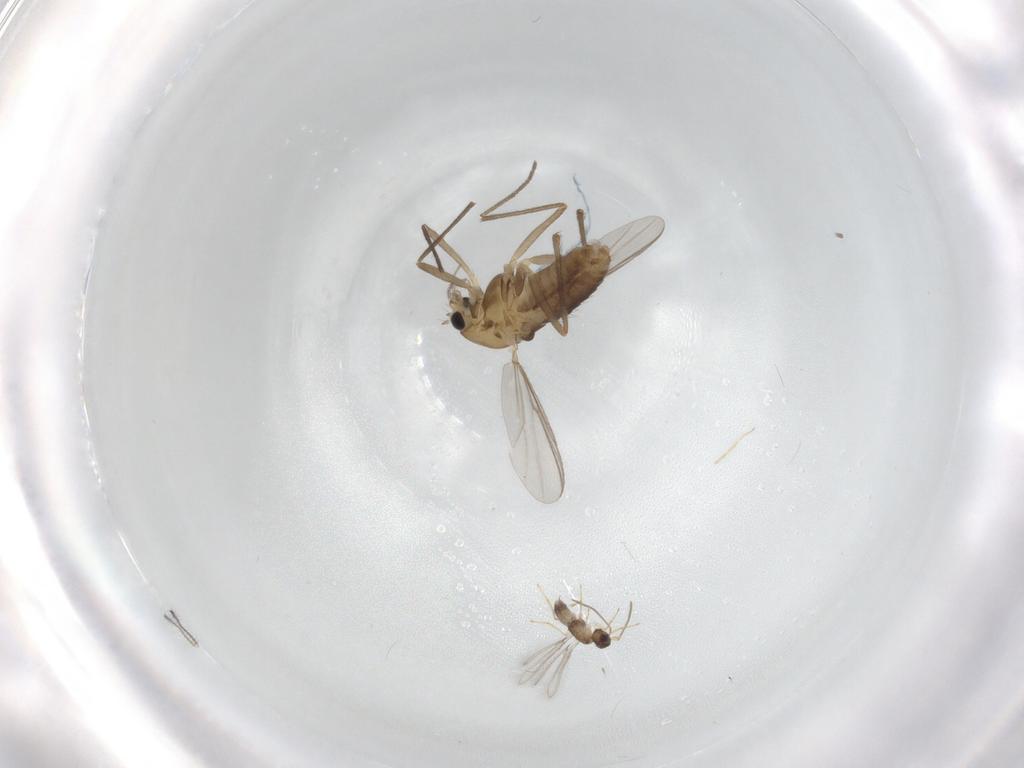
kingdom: Animalia
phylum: Arthropoda
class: Insecta
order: Diptera
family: Chironomidae
